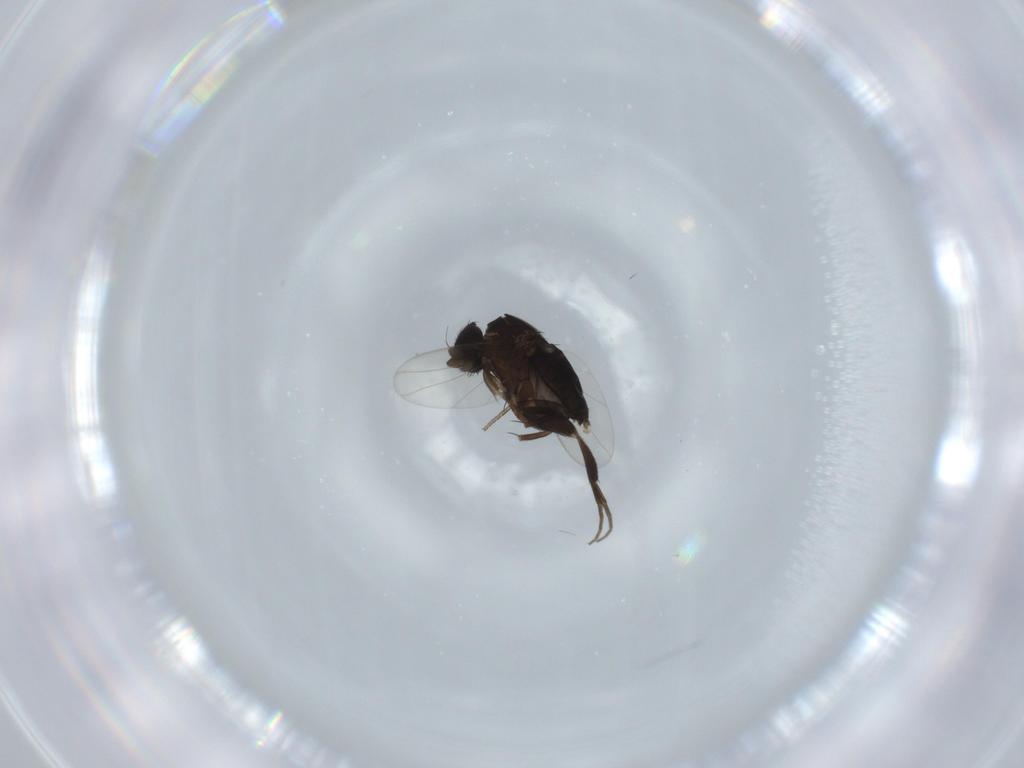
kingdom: Animalia
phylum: Arthropoda
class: Insecta
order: Diptera
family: Phoridae
